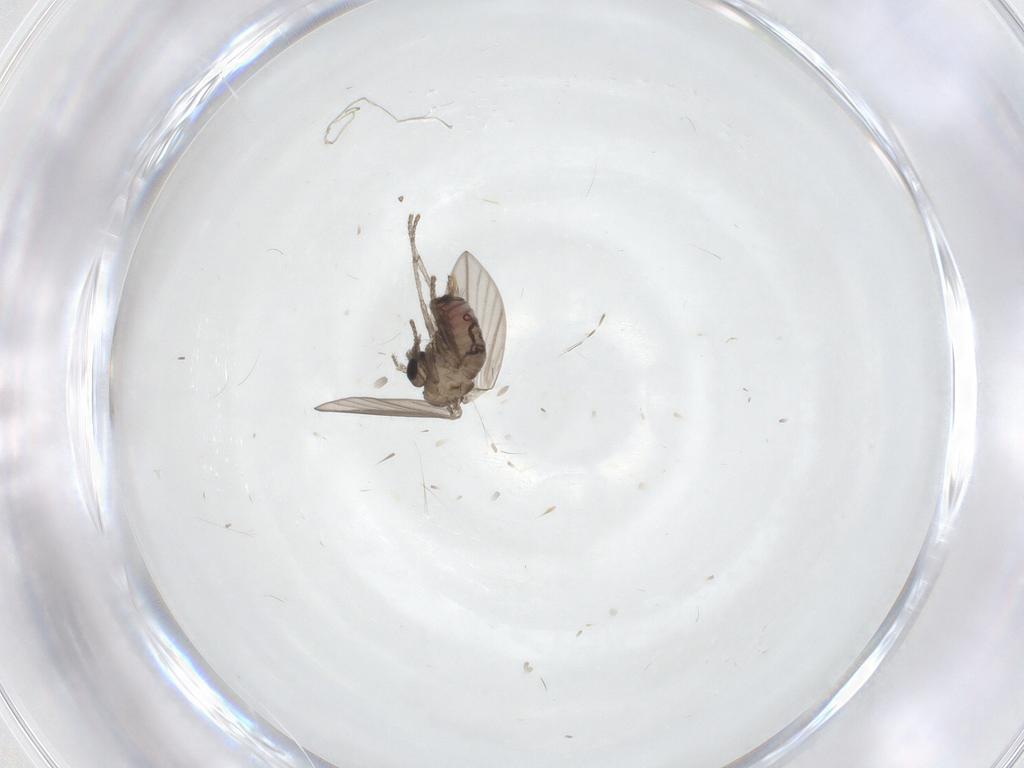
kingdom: Animalia
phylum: Arthropoda
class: Insecta
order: Diptera
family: Psychodidae
